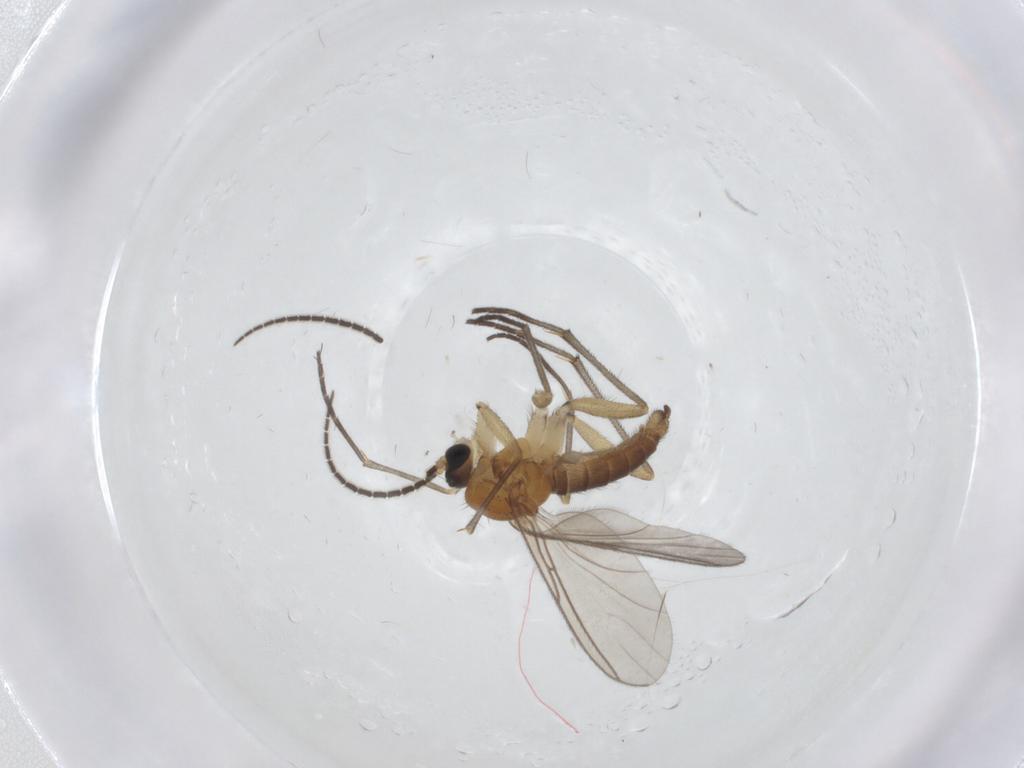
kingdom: Animalia
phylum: Arthropoda
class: Insecta
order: Diptera
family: Sciaridae
